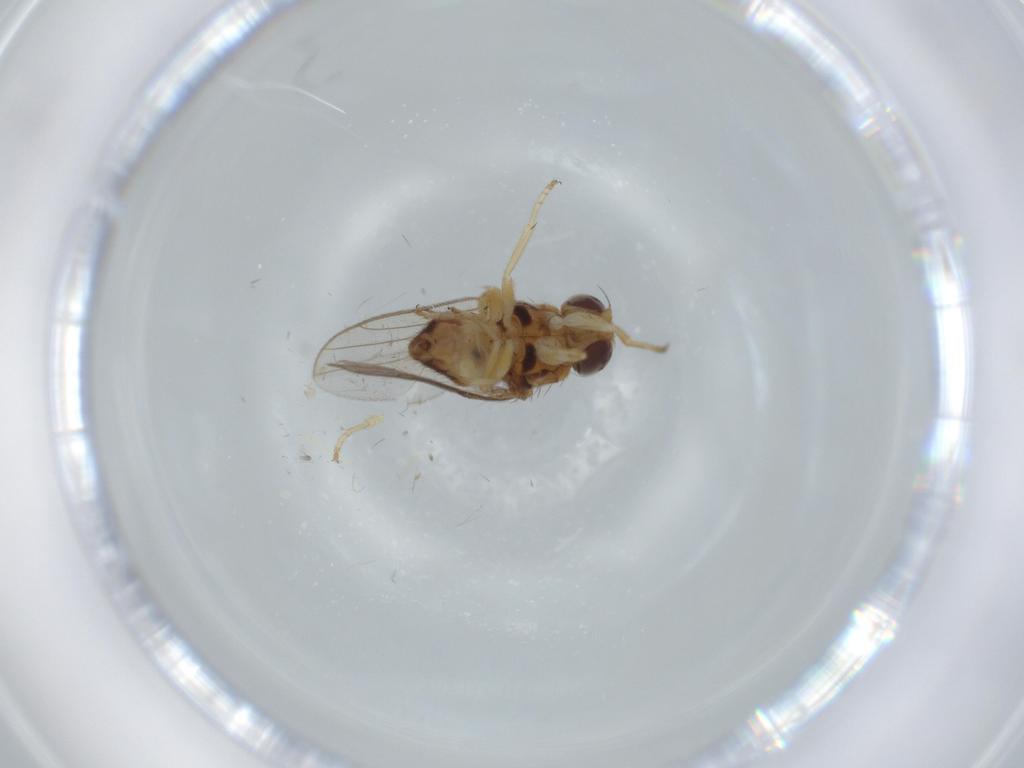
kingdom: Animalia
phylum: Arthropoda
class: Insecta
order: Diptera
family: Chloropidae
